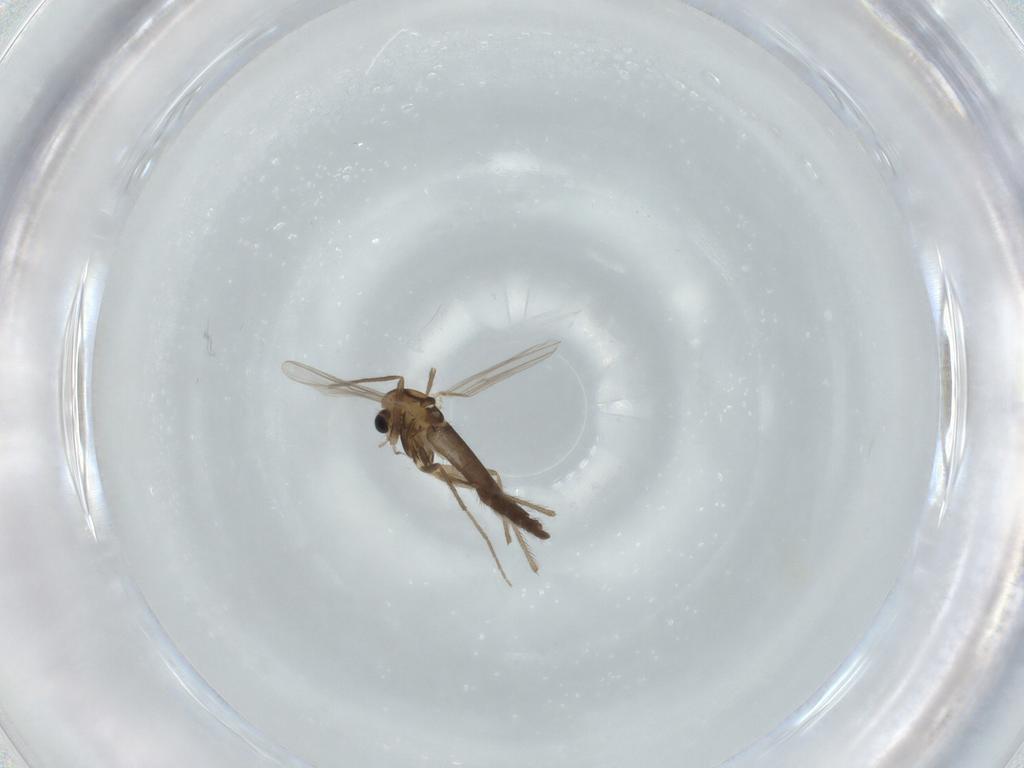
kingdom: Animalia
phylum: Arthropoda
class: Insecta
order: Diptera
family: Chironomidae
